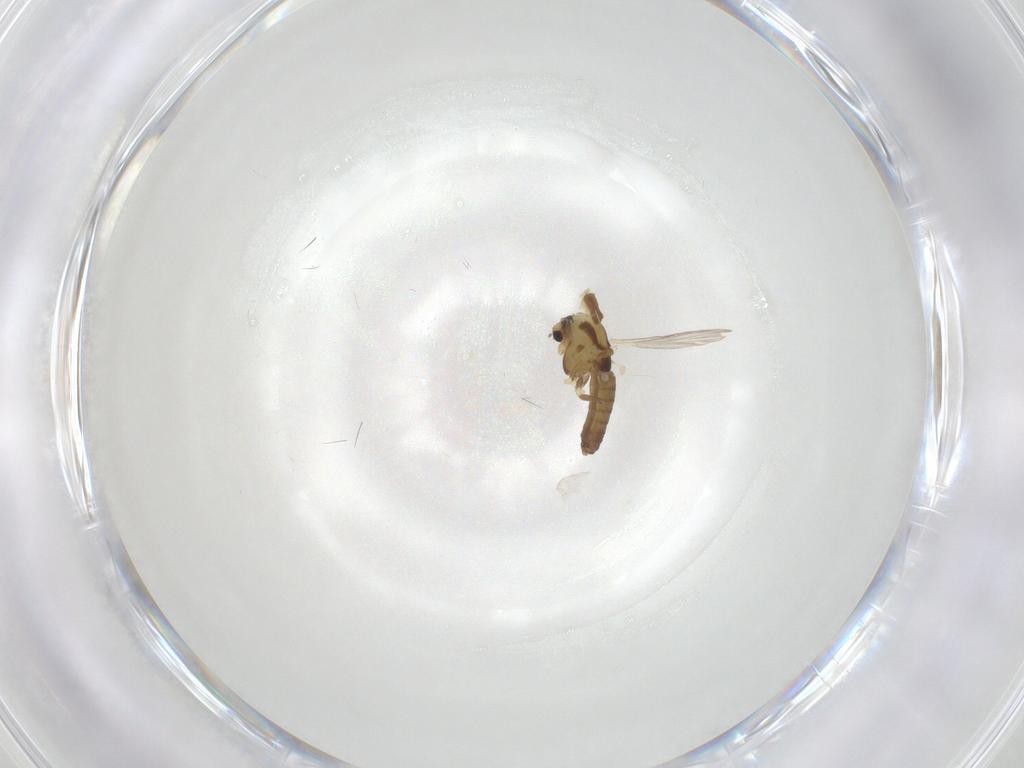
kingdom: Animalia
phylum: Arthropoda
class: Insecta
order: Diptera
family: Chironomidae
